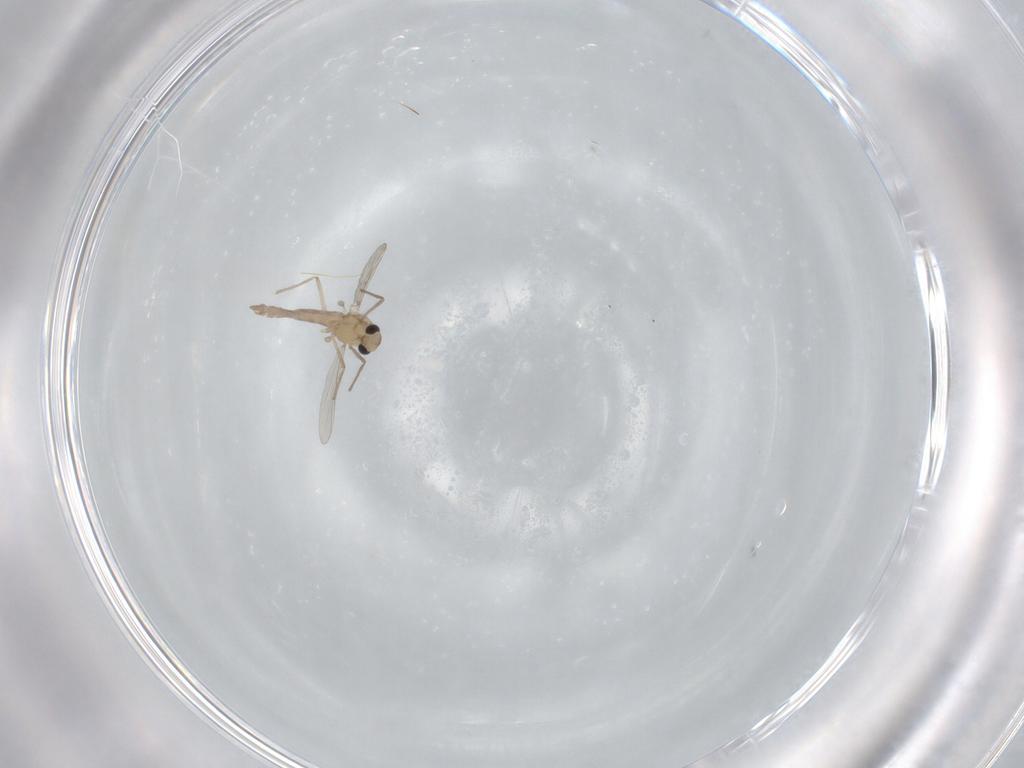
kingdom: Animalia
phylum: Arthropoda
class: Insecta
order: Diptera
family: Chironomidae
